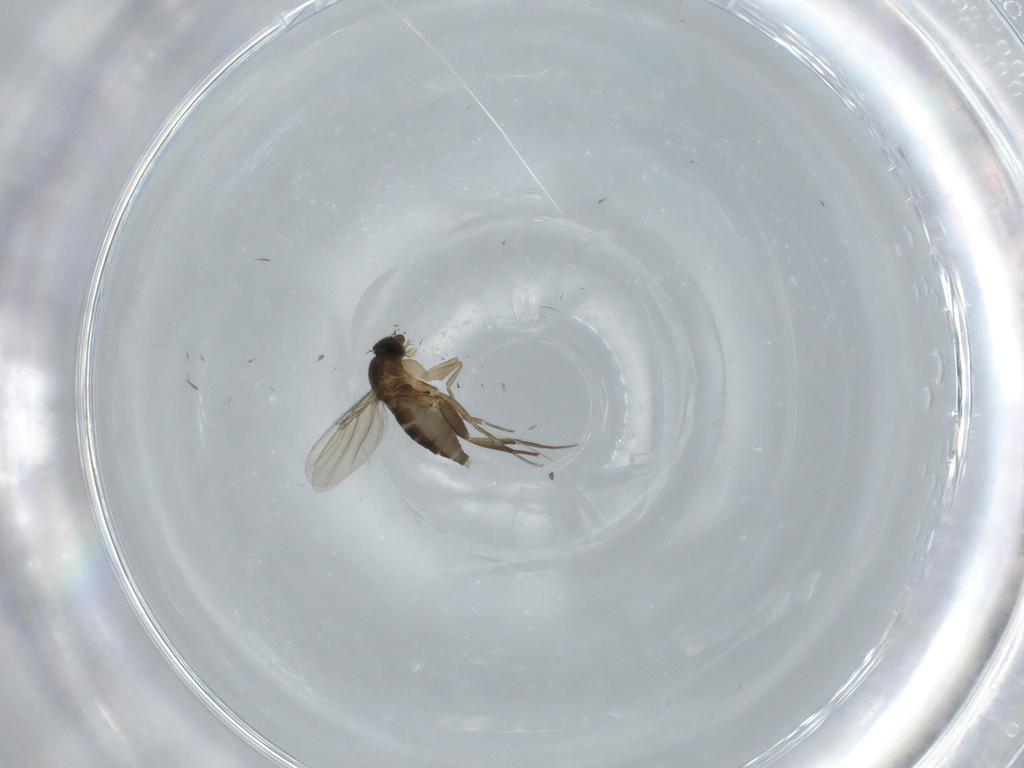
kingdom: Animalia
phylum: Arthropoda
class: Insecta
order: Diptera
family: Phoridae
